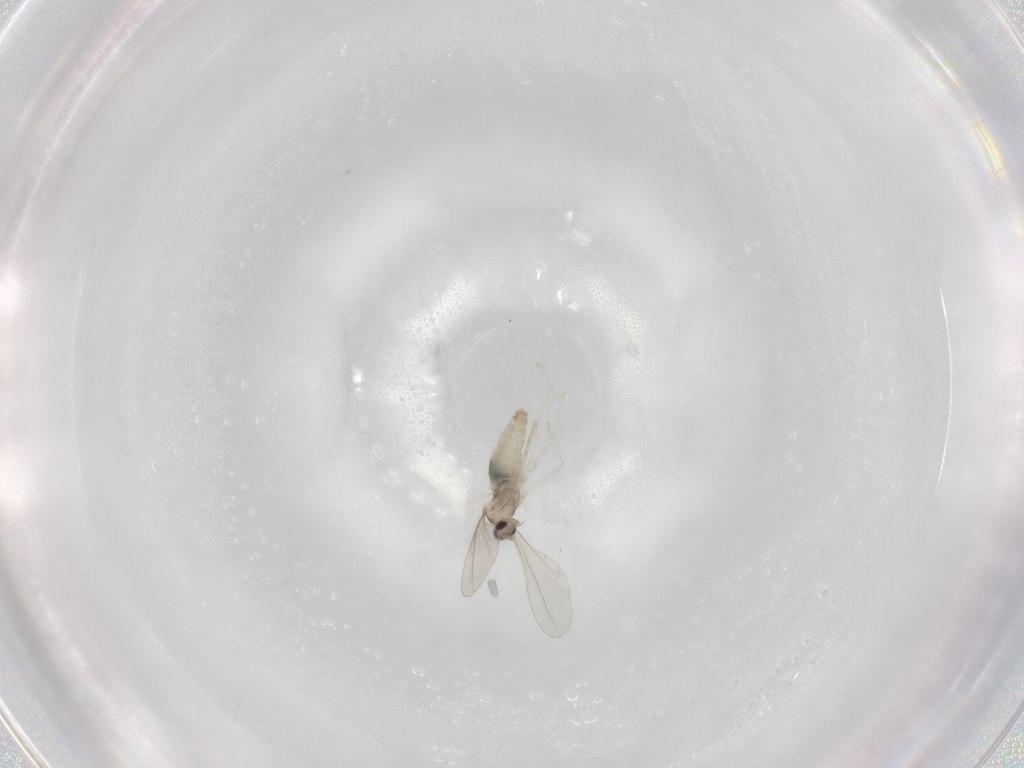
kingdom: Animalia
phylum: Arthropoda
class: Insecta
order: Diptera
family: Cecidomyiidae
